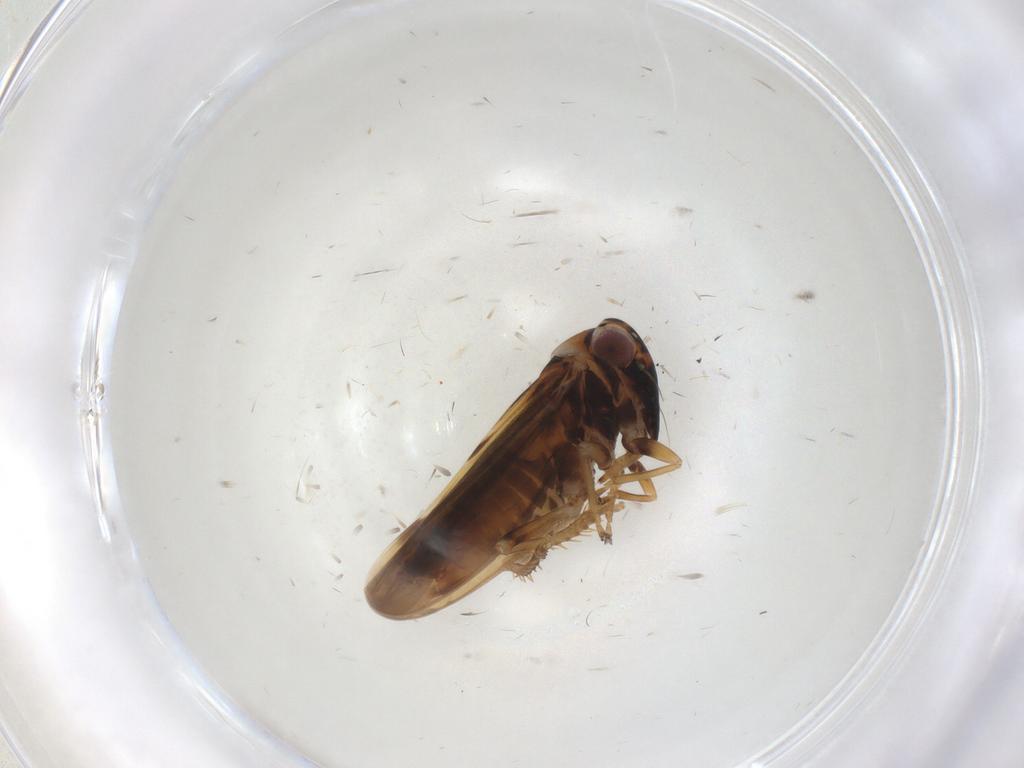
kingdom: Animalia
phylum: Arthropoda
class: Insecta
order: Hemiptera
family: Cicadellidae
